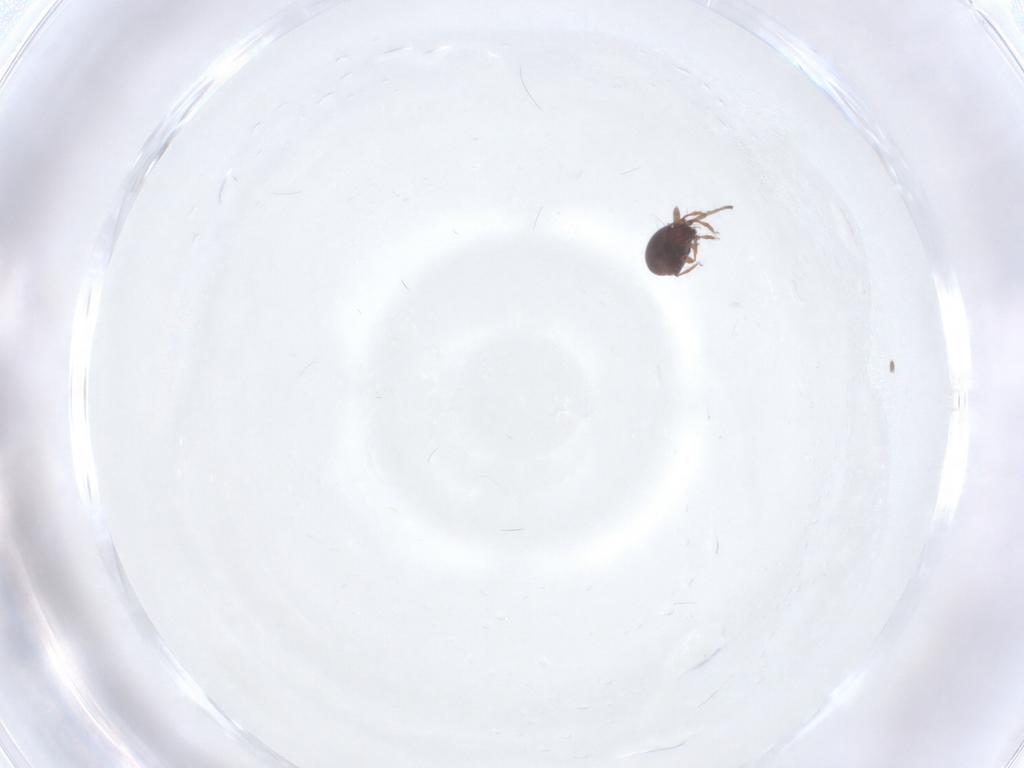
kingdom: Animalia
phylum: Arthropoda
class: Arachnida
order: Sarcoptiformes
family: Ceratozetidae
